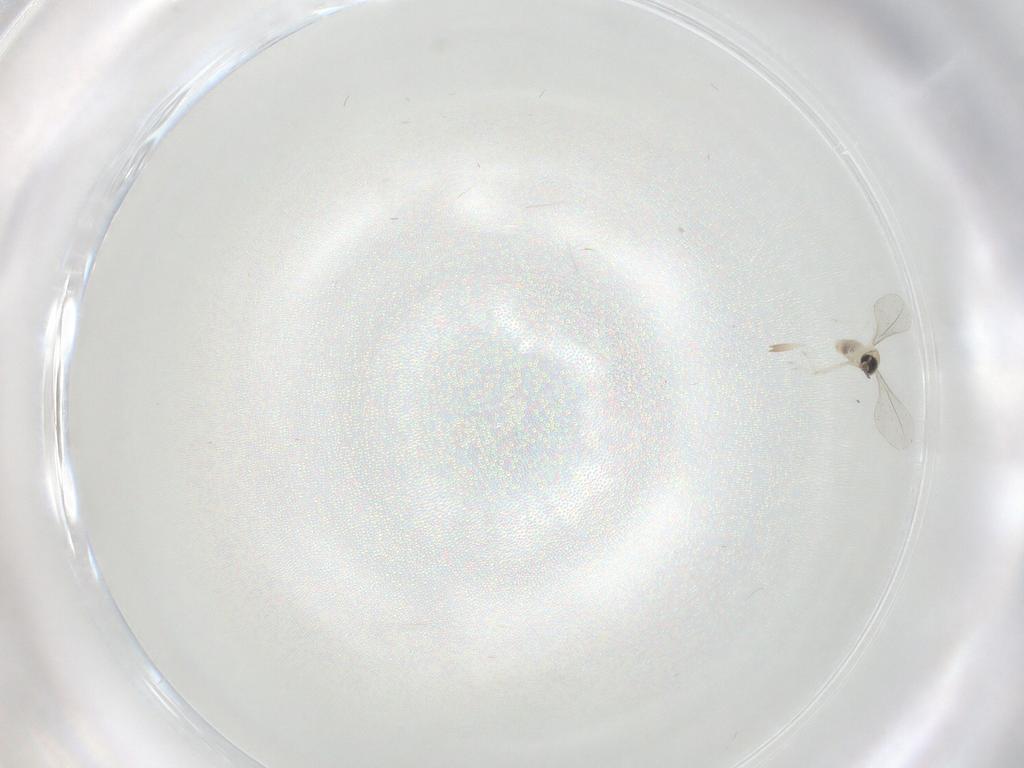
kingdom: Animalia
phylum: Arthropoda
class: Insecta
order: Diptera
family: Cecidomyiidae
